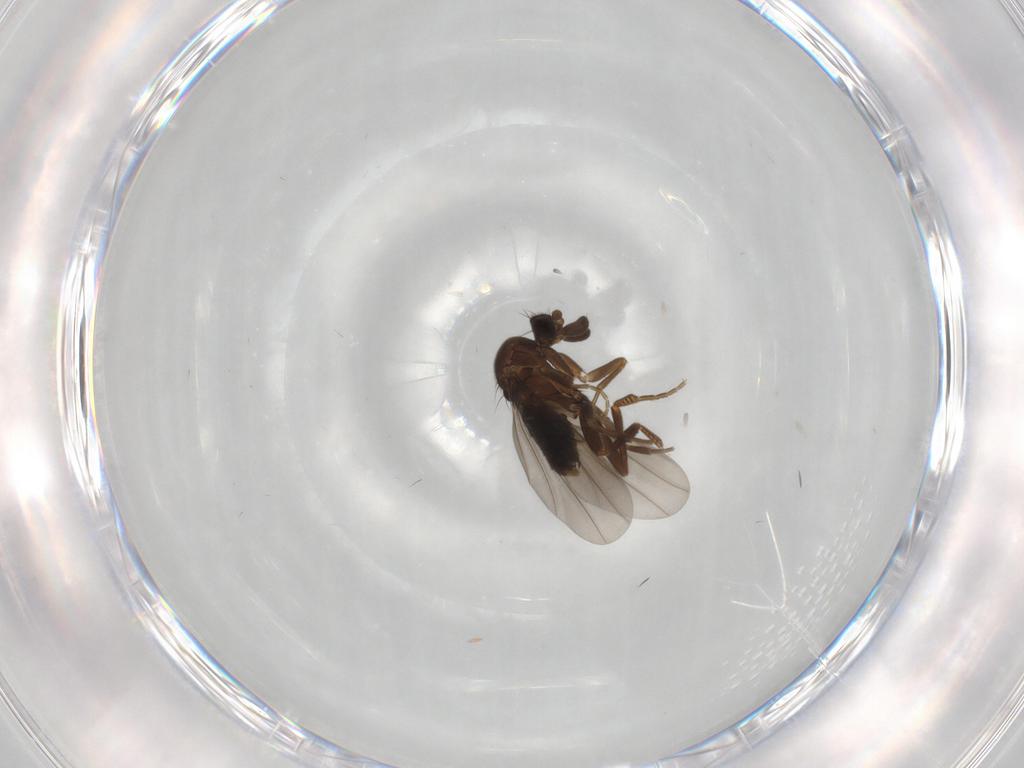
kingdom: Animalia
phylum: Arthropoda
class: Insecta
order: Diptera
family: Phoridae
